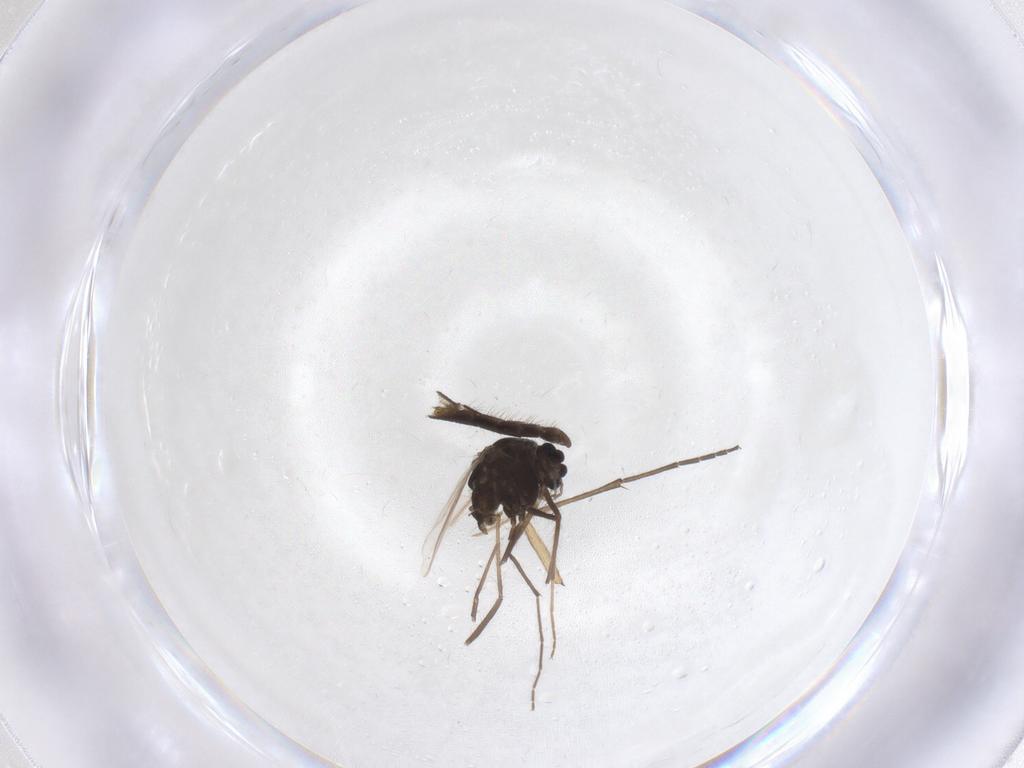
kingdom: Animalia
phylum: Arthropoda
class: Insecta
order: Diptera
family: Chironomidae
